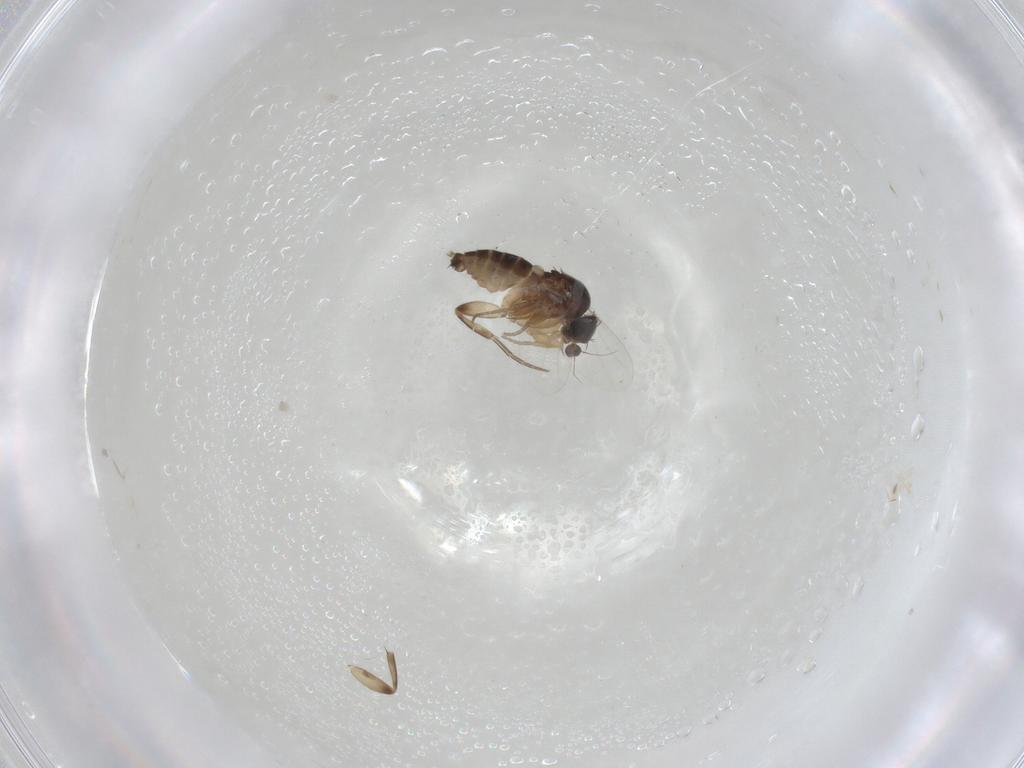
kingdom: Animalia
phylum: Arthropoda
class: Insecta
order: Diptera
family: Phoridae
